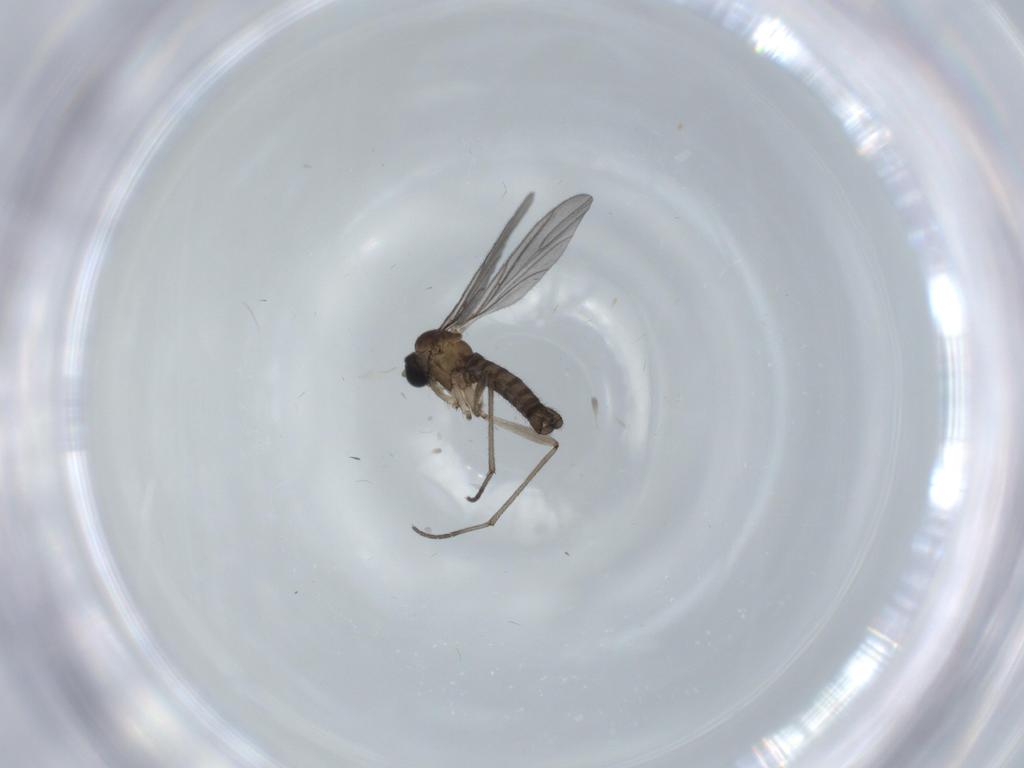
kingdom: Animalia
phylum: Arthropoda
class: Insecta
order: Diptera
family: Sciaridae
